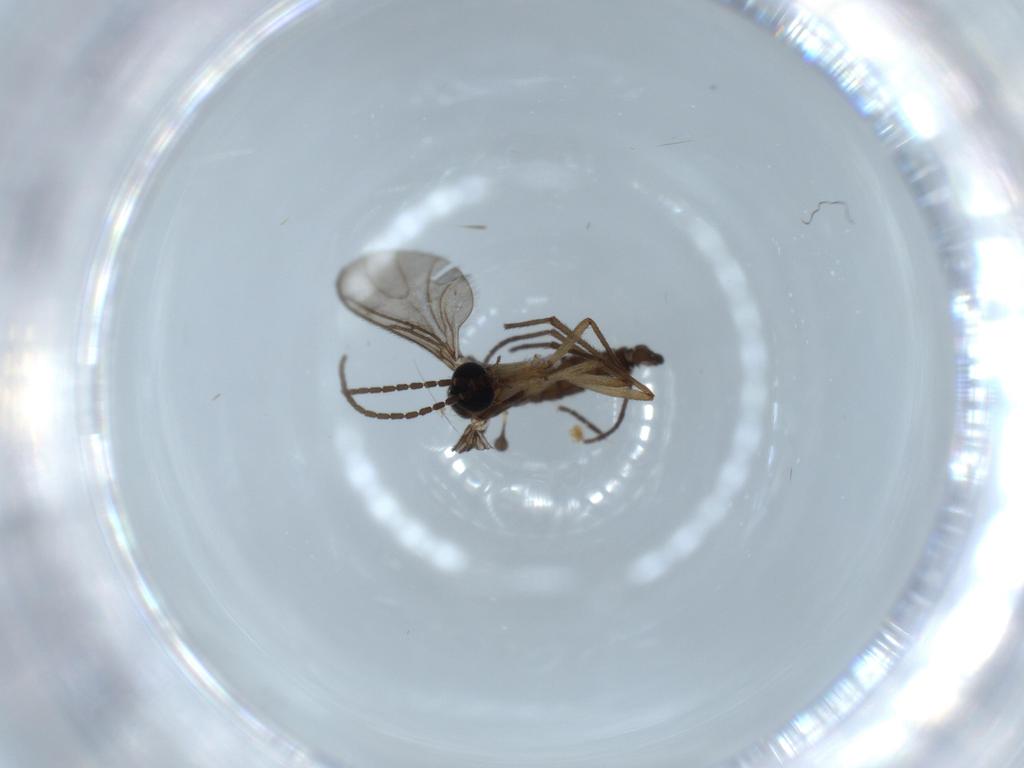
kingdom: Animalia
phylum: Arthropoda
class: Insecta
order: Diptera
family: Sciaridae
